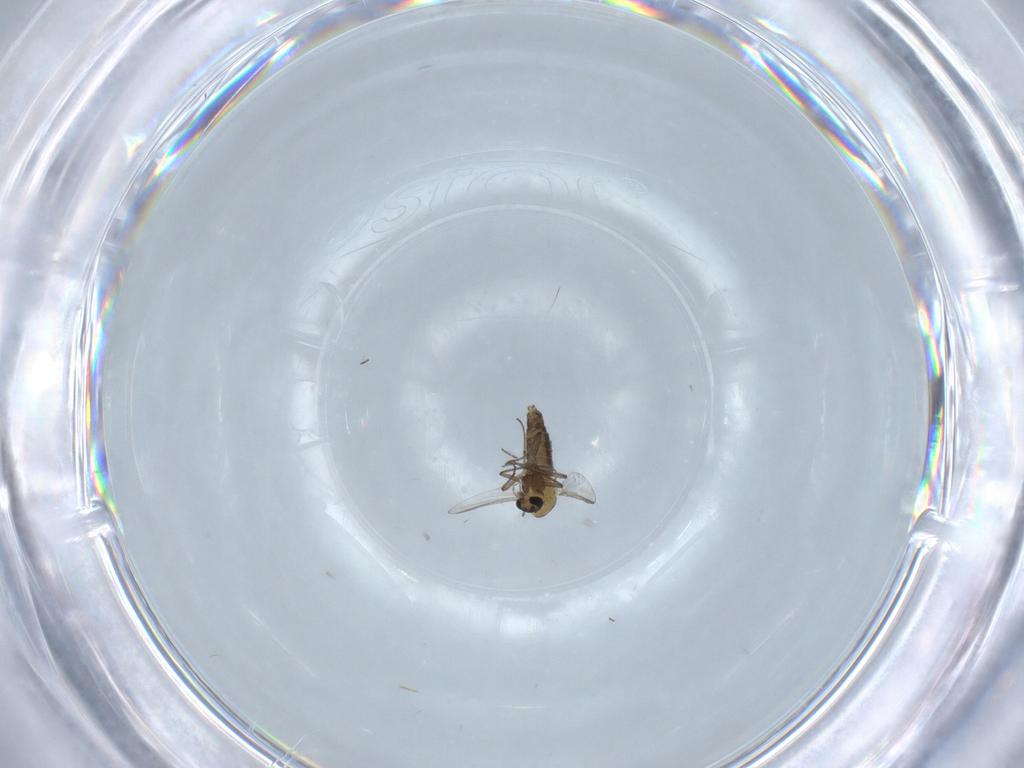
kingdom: Animalia
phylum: Arthropoda
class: Insecta
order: Diptera
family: Chironomidae
